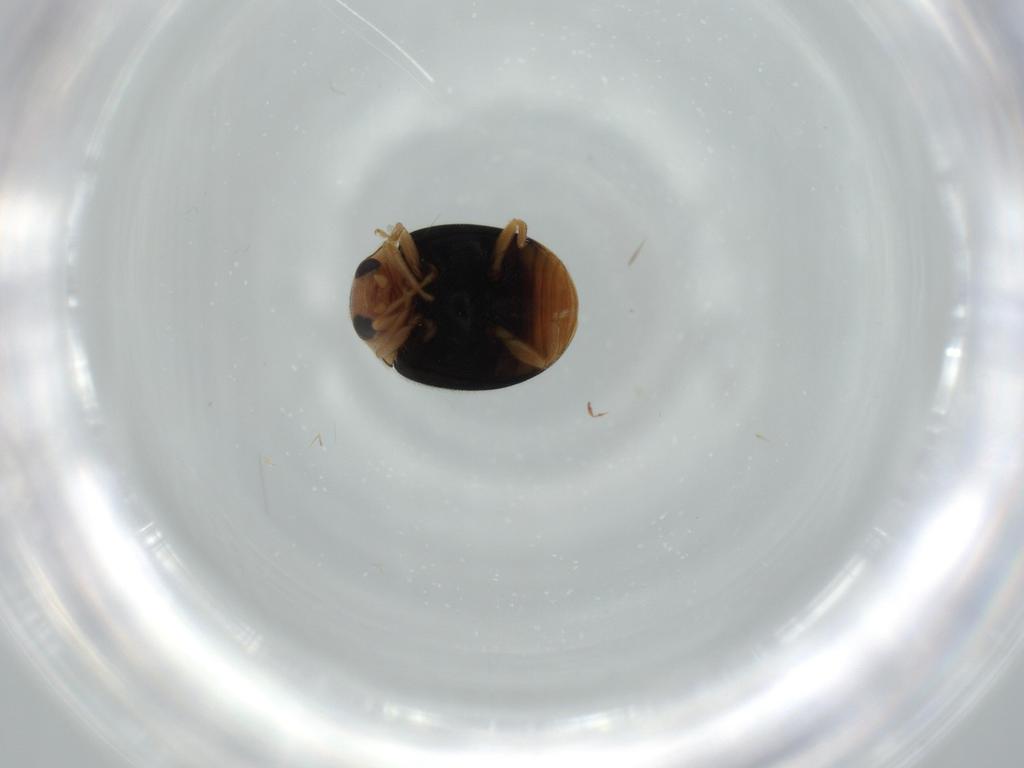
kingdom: Animalia
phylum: Arthropoda
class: Insecta
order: Coleoptera
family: Coccinellidae
